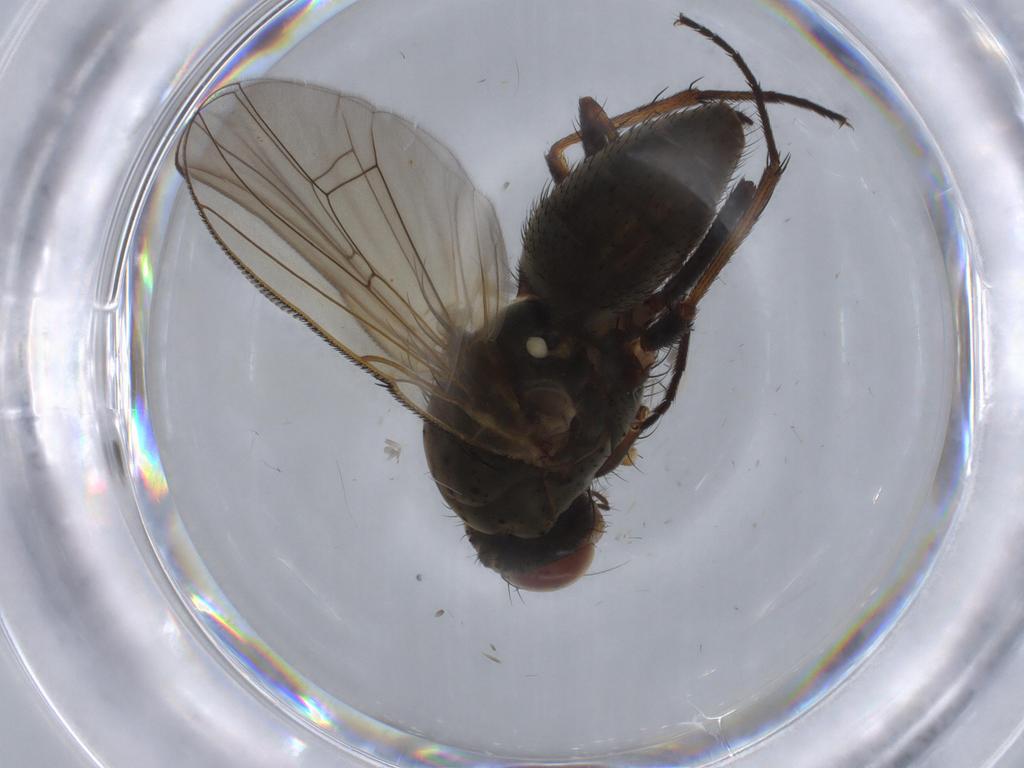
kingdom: Animalia
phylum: Arthropoda
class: Insecta
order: Diptera
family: Anthomyiidae
